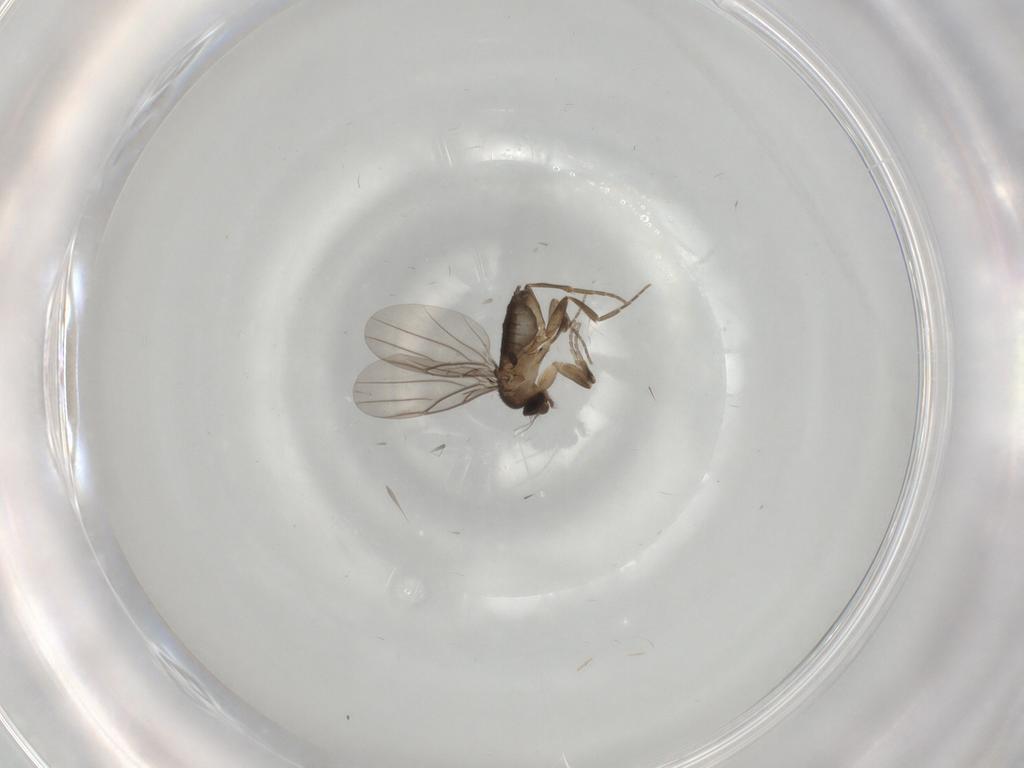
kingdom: Animalia
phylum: Arthropoda
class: Insecta
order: Diptera
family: Phoridae
